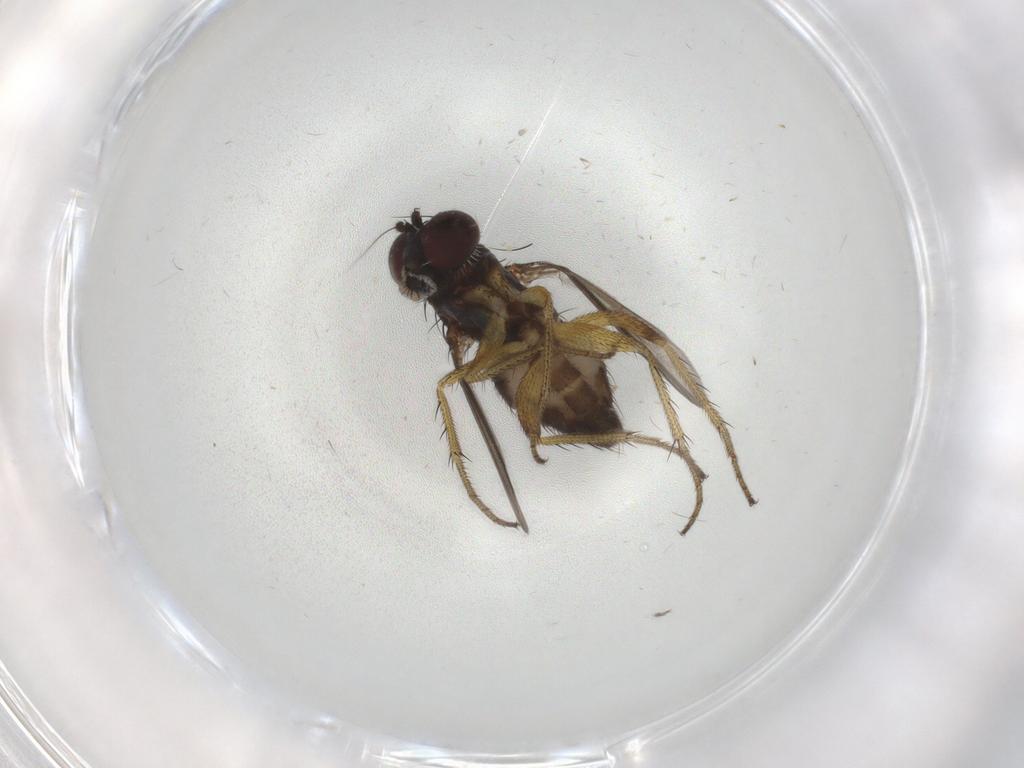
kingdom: Animalia
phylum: Arthropoda
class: Insecta
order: Diptera
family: Dolichopodidae
